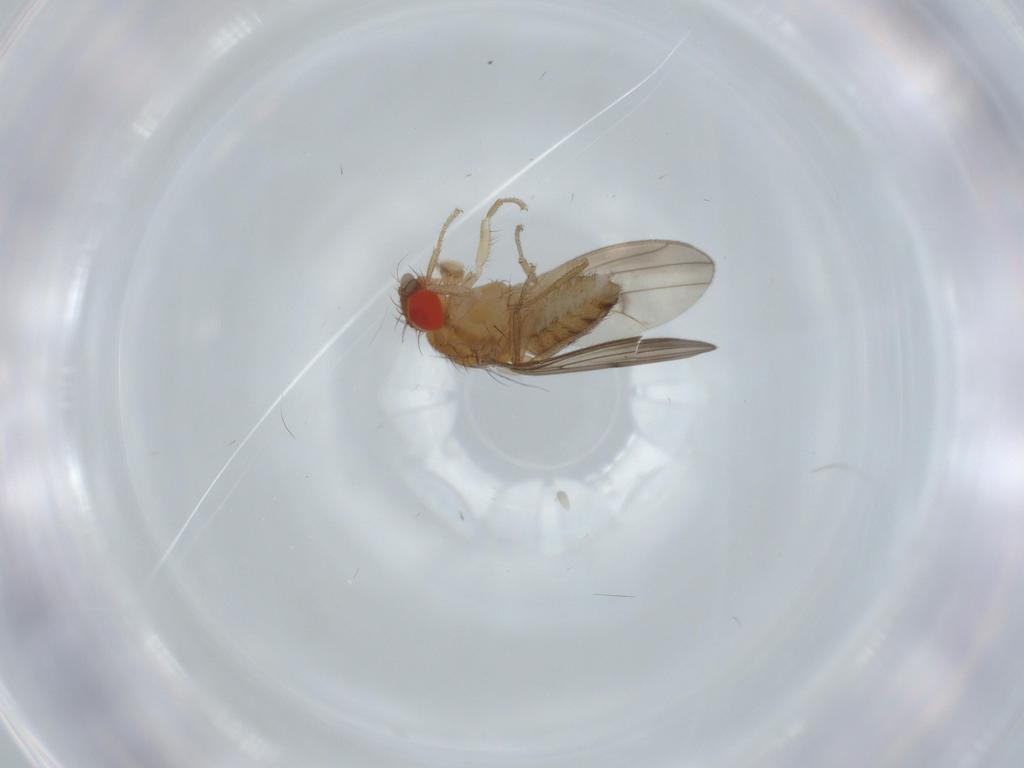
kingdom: Animalia
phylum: Arthropoda
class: Insecta
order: Diptera
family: Drosophilidae
